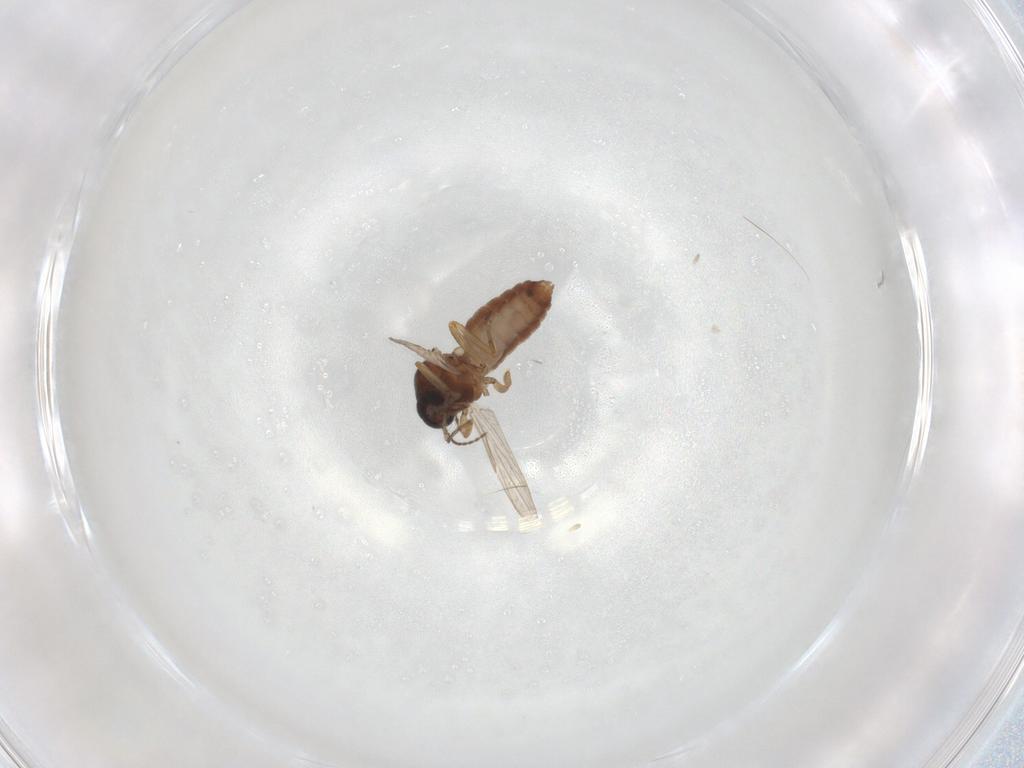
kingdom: Animalia
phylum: Arthropoda
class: Insecta
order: Diptera
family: Ceratopogonidae
